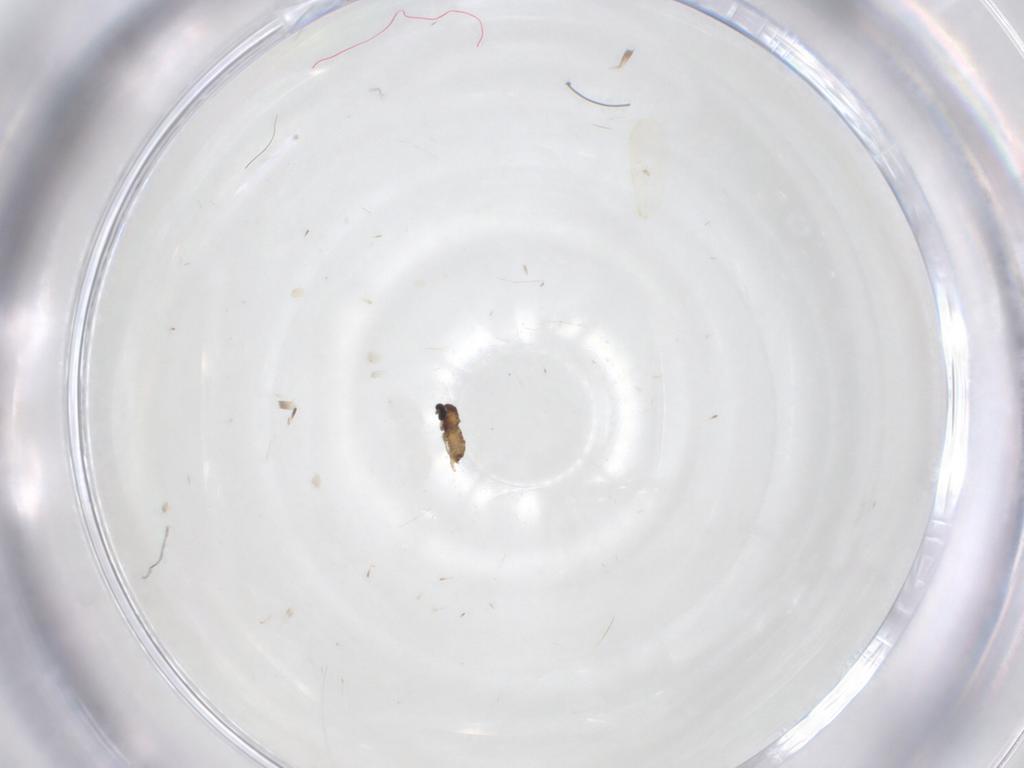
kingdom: Animalia
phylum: Arthropoda
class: Insecta
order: Diptera
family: Cecidomyiidae
